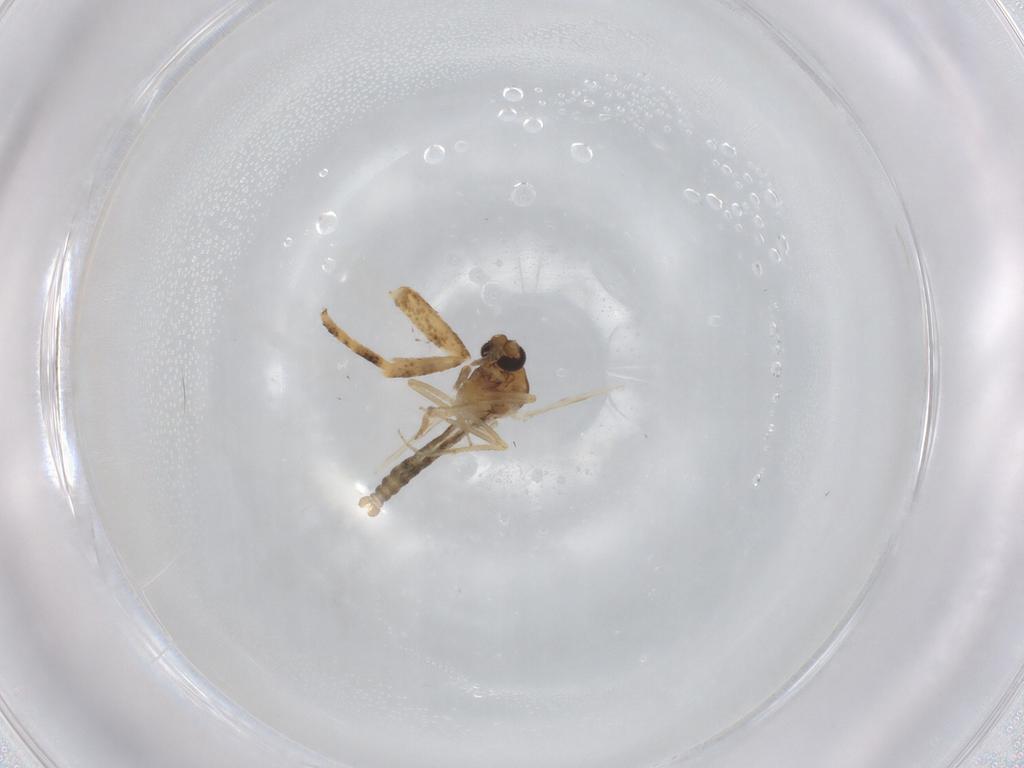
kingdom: Animalia
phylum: Arthropoda
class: Insecta
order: Diptera
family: Ceratopogonidae
